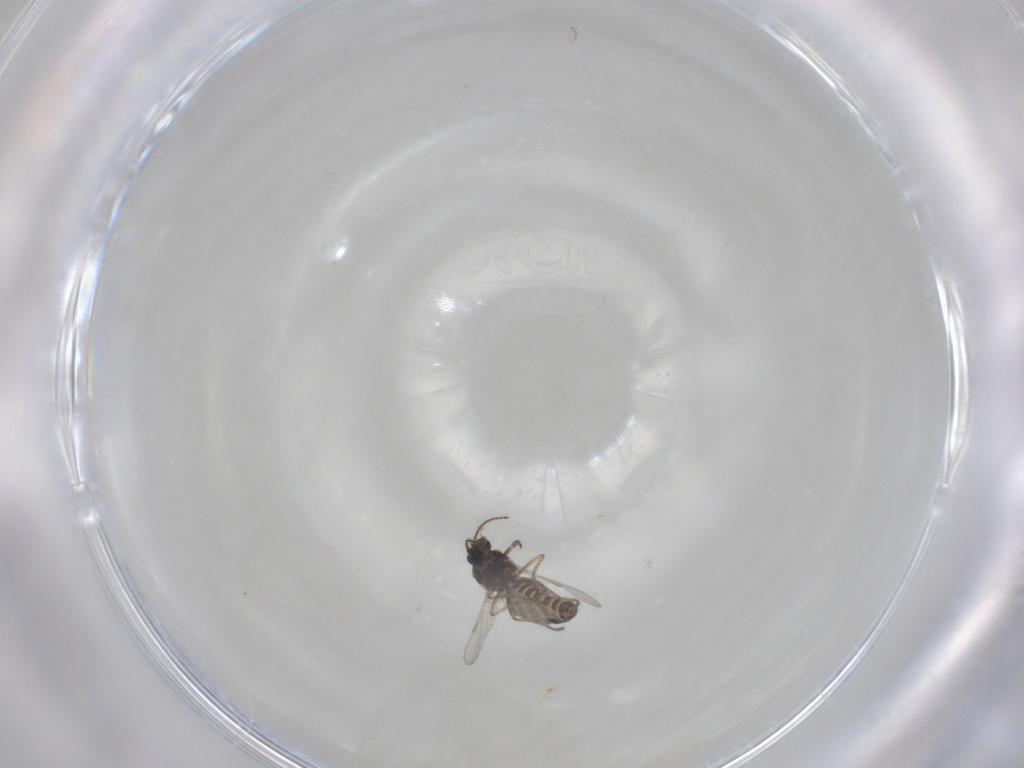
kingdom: Animalia
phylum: Arthropoda
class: Insecta
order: Diptera
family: Ceratopogonidae
